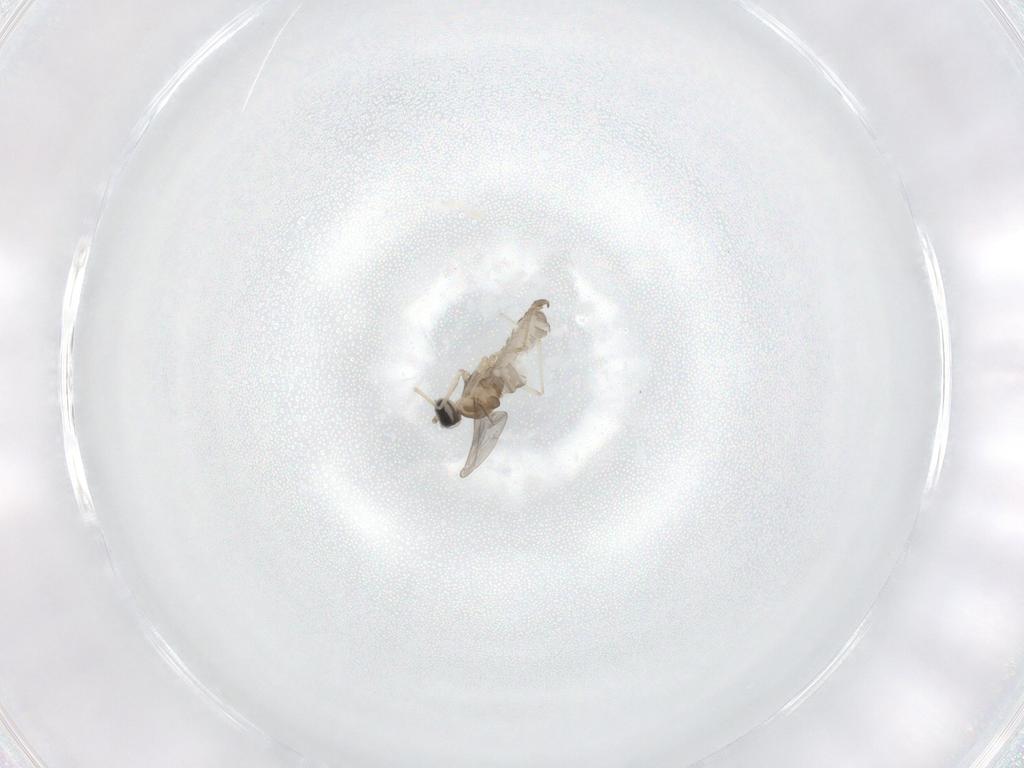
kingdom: Animalia
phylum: Arthropoda
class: Insecta
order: Diptera
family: Cecidomyiidae
